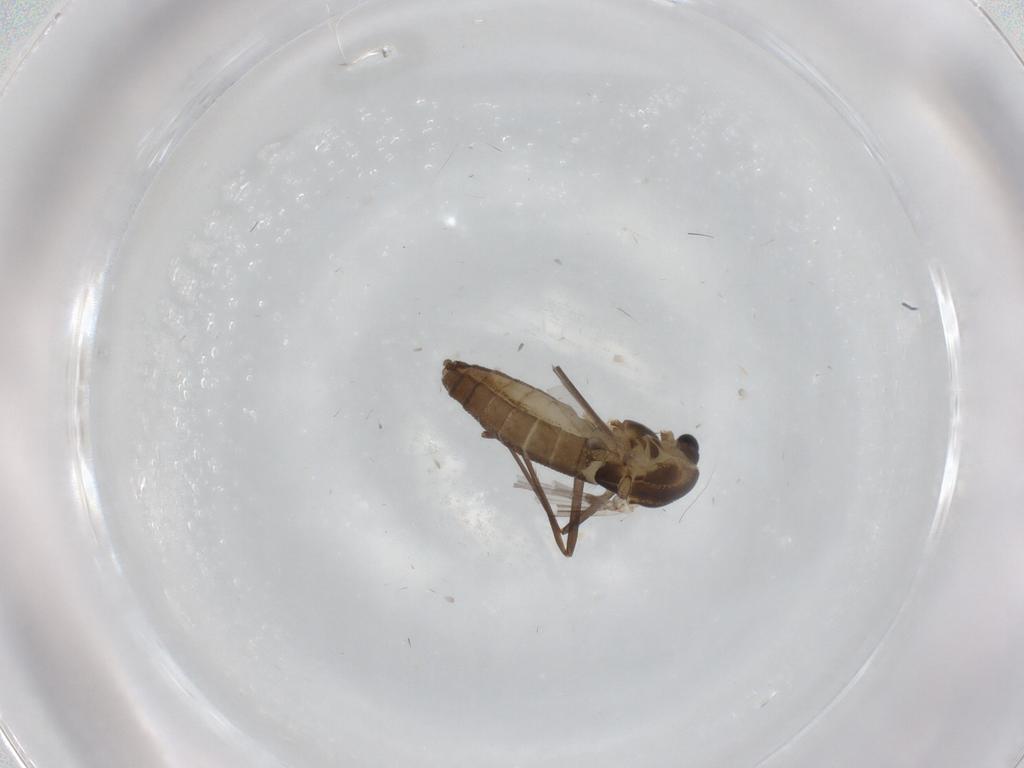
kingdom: Animalia
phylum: Arthropoda
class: Insecta
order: Diptera
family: Chironomidae
